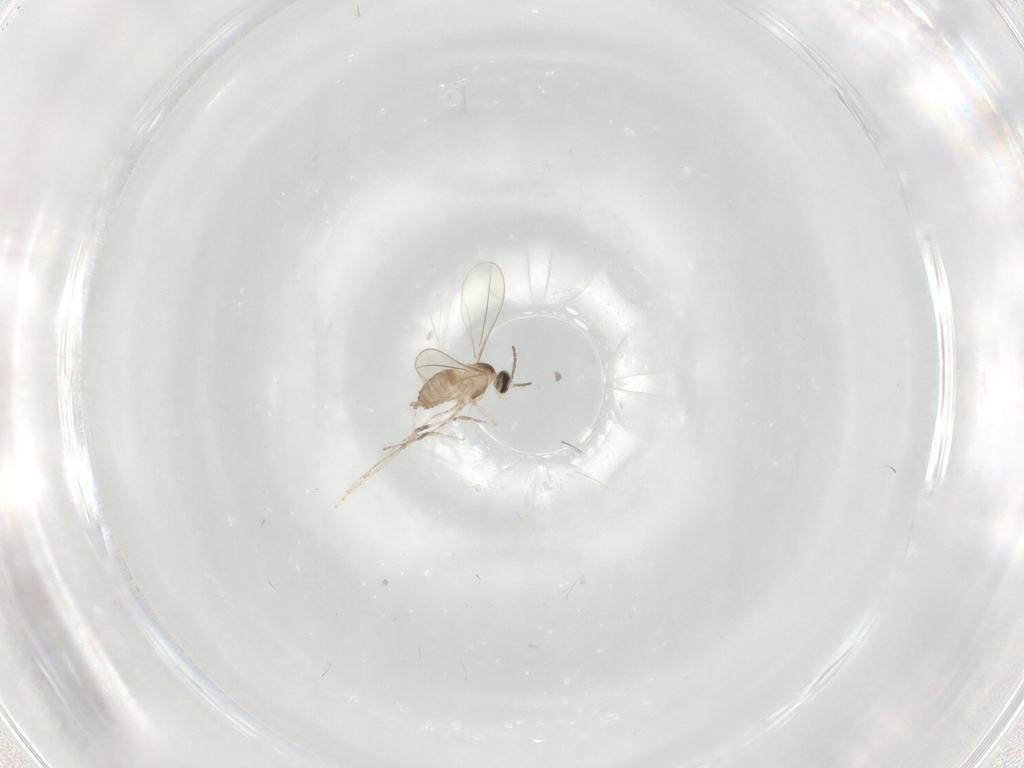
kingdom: Animalia
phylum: Arthropoda
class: Insecta
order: Diptera
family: Cecidomyiidae
